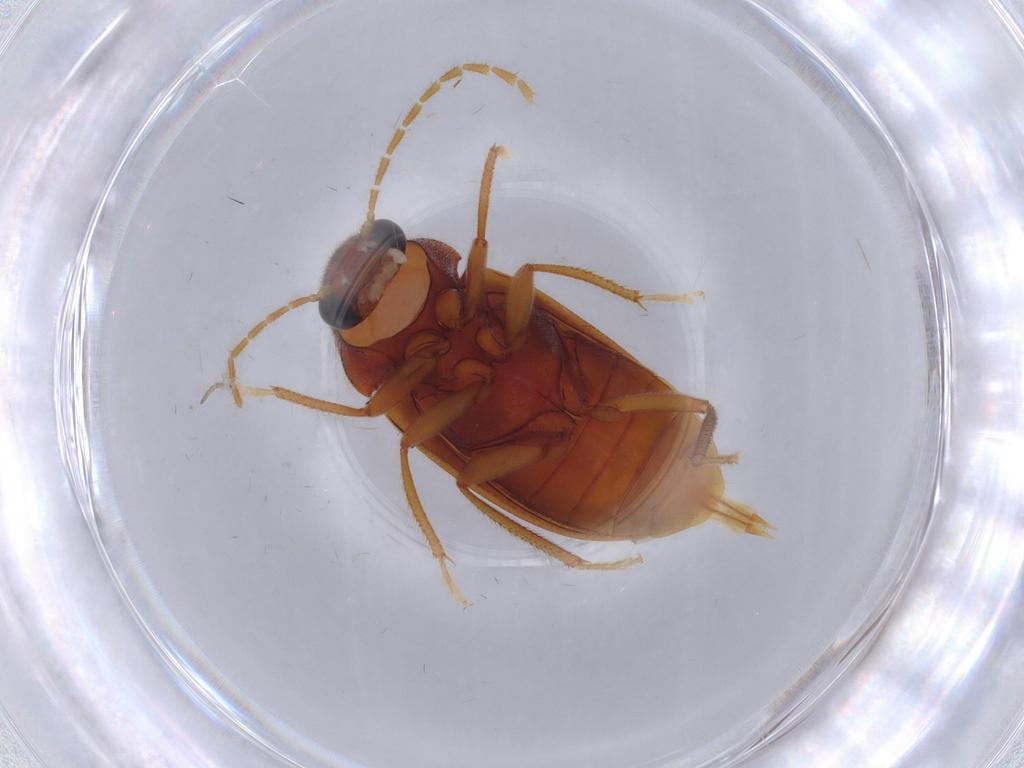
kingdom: Animalia
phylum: Arthropoda
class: Insecta
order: Coleoptera
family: Ptilodactylidae
